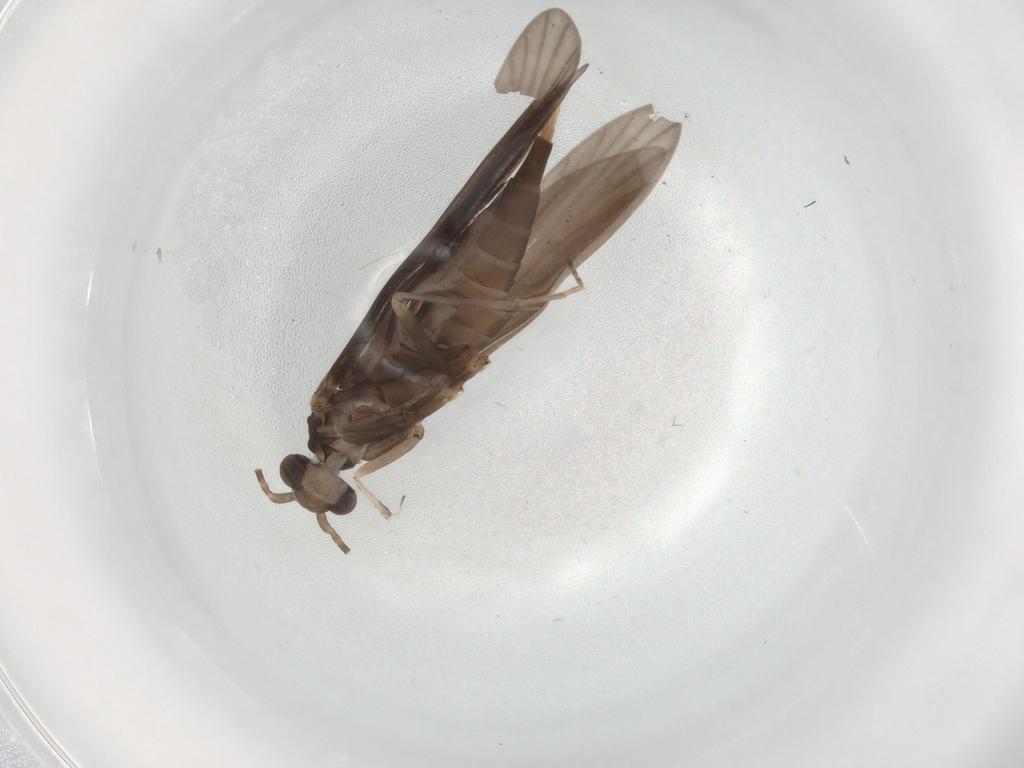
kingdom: Animalia
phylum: Arthropoda
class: Insecta
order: Trichoptera
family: Xiphocentronidae
